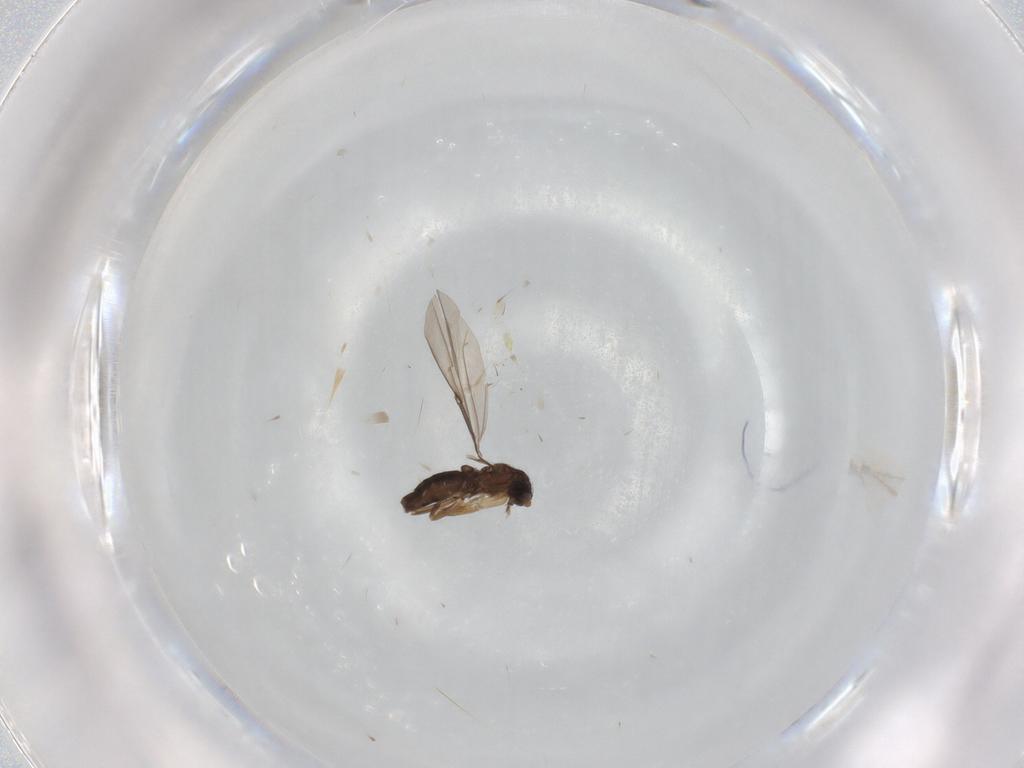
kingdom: Animalia
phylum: Arthropoda
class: Insecta
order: Diptera
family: Phoridae
